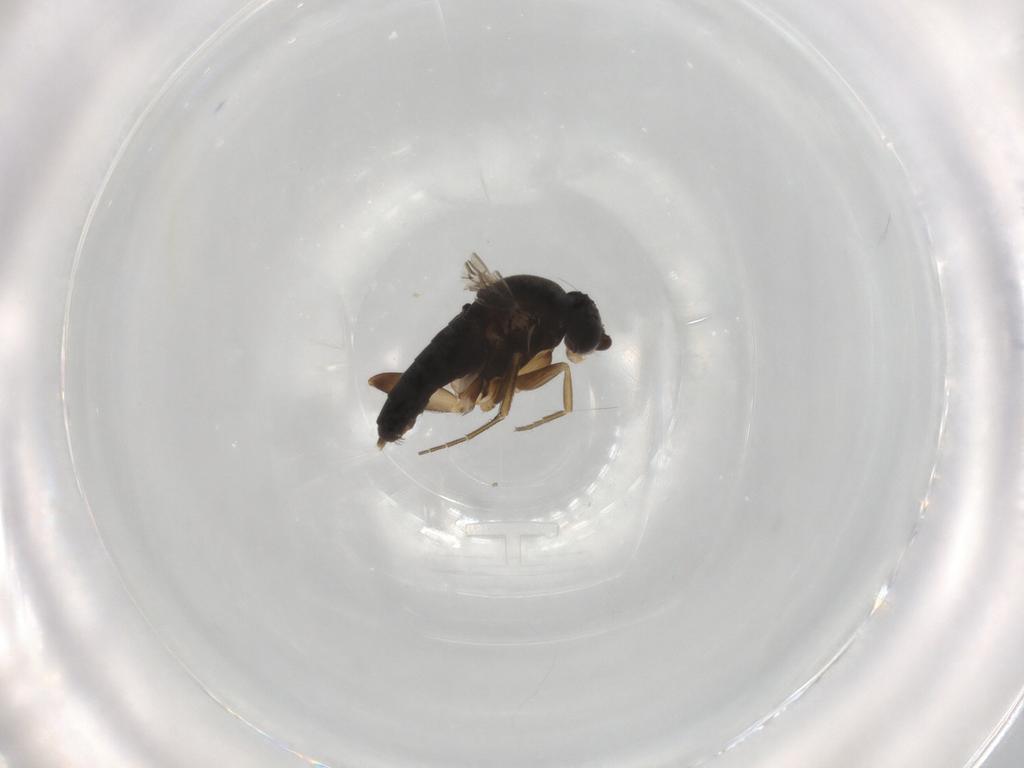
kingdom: Animalia
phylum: Arthropoda
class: Insecta
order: Diptera
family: Phoridae
